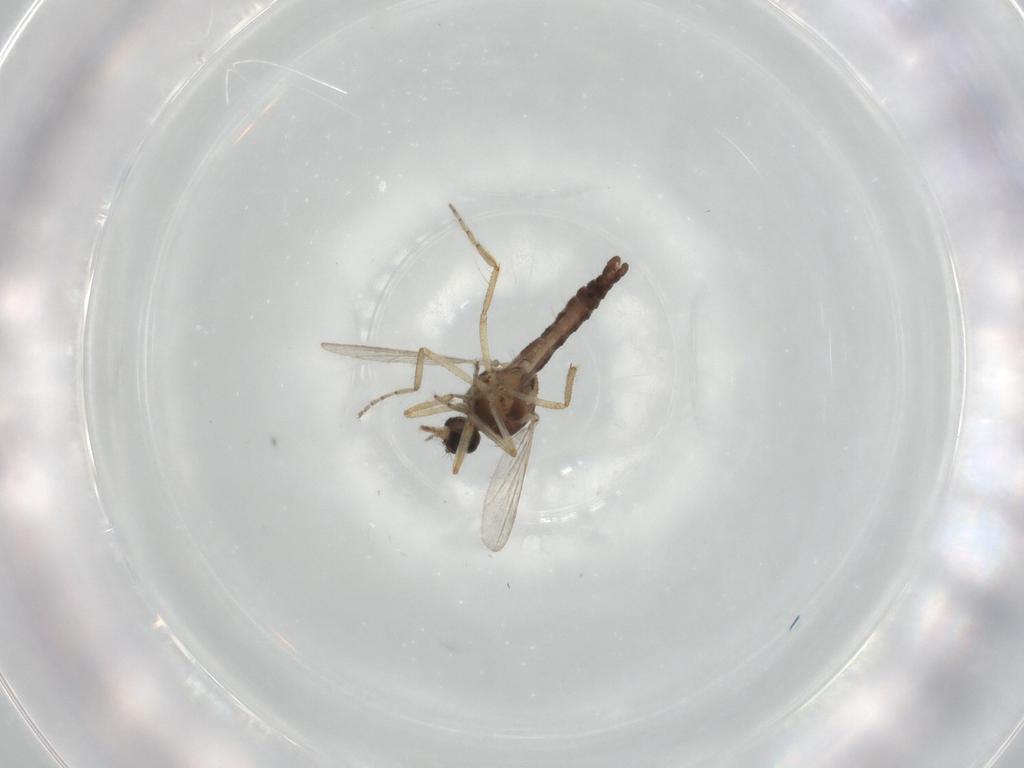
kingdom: Animalia
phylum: Arthropoda
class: Insecta
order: Diptera
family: Ceratopogonidae
